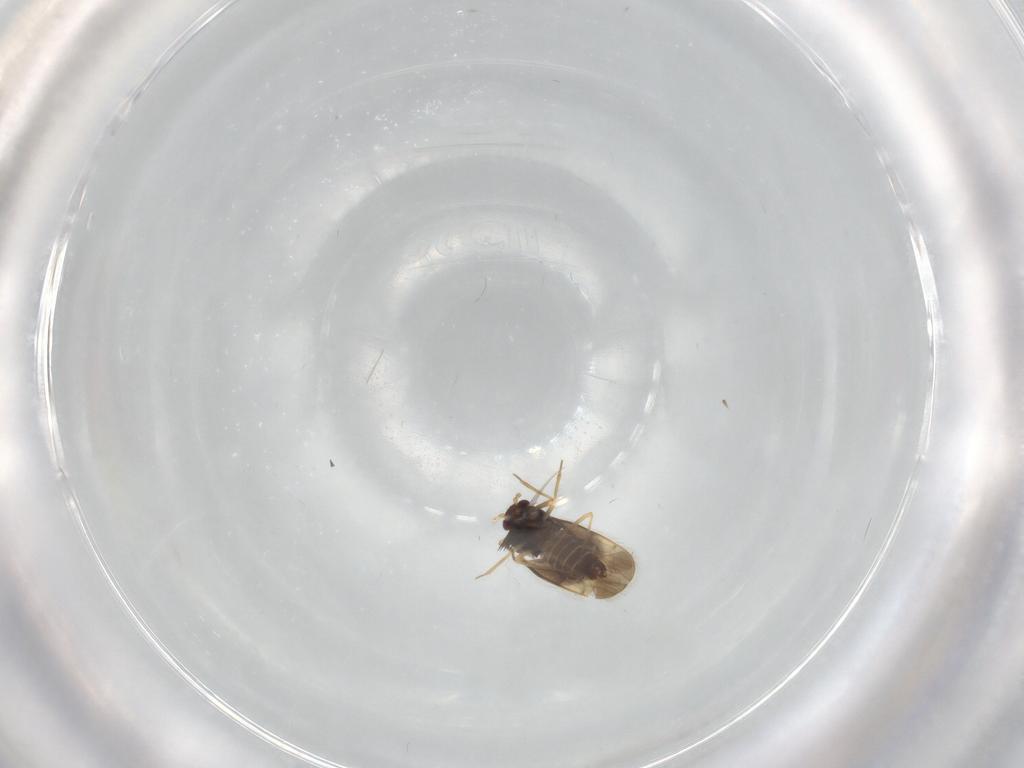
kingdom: Animalia
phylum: Arthropoda
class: Insecta
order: Hemiptera
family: Schizopteridae
